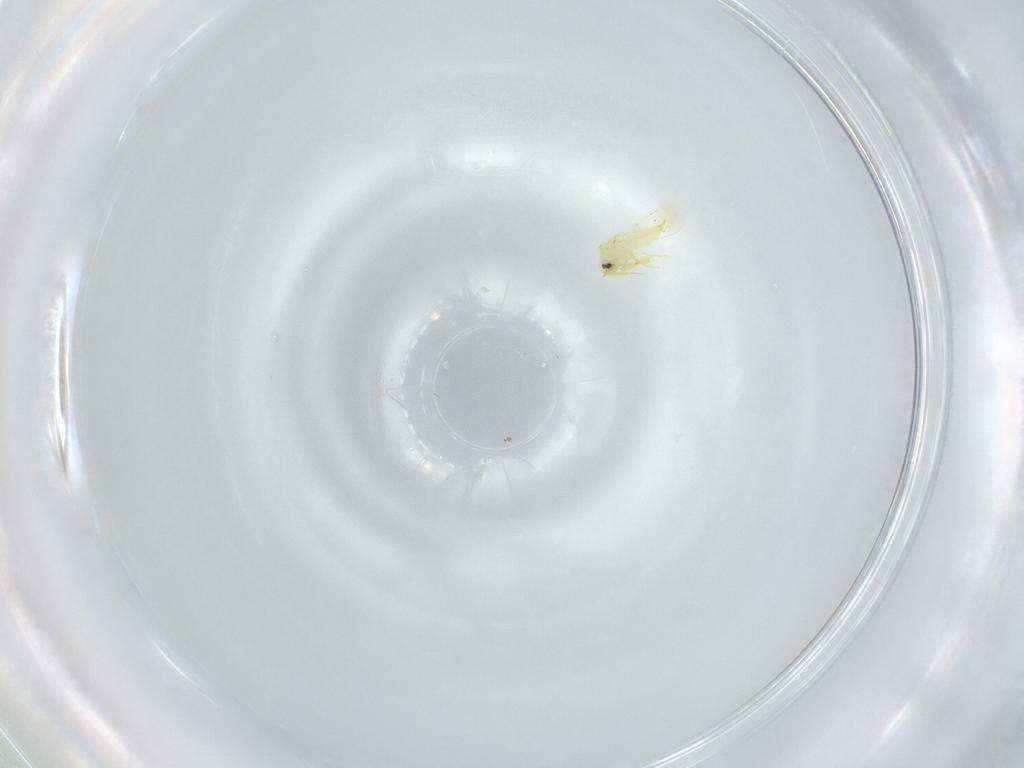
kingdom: Animalia
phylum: Arthropoda
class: Insecta
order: Hemiptera
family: Aleyrodidae
